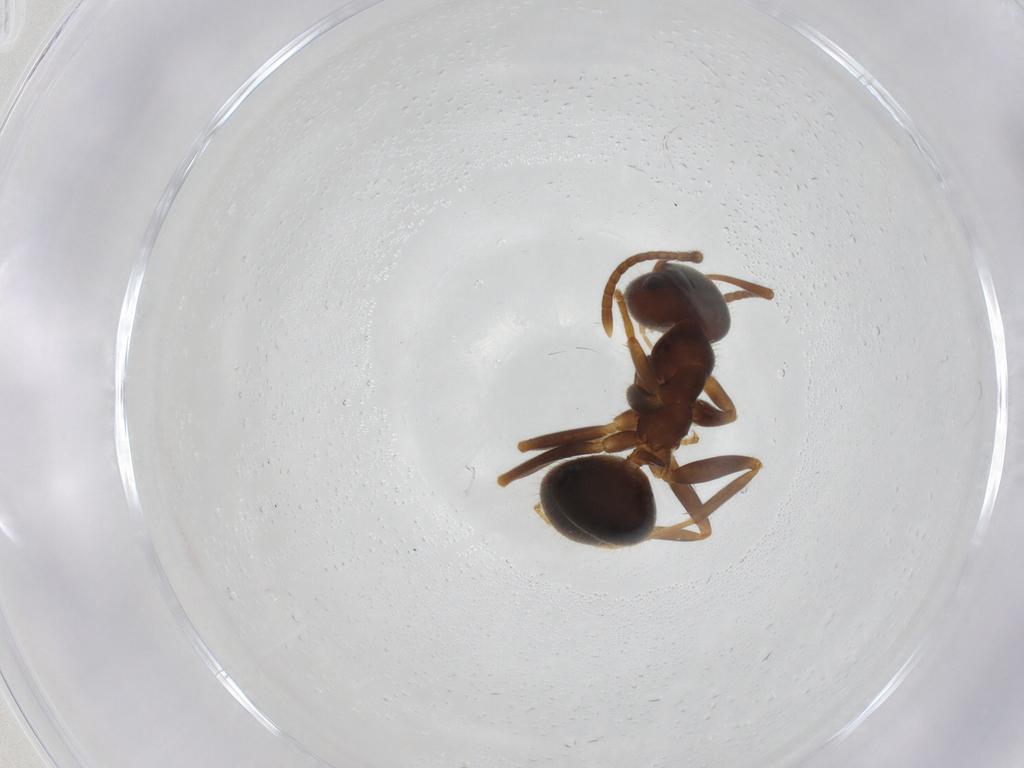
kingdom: Animalia
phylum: Arthropoda
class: Insecta
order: Hymenoptera
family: Formicidae
